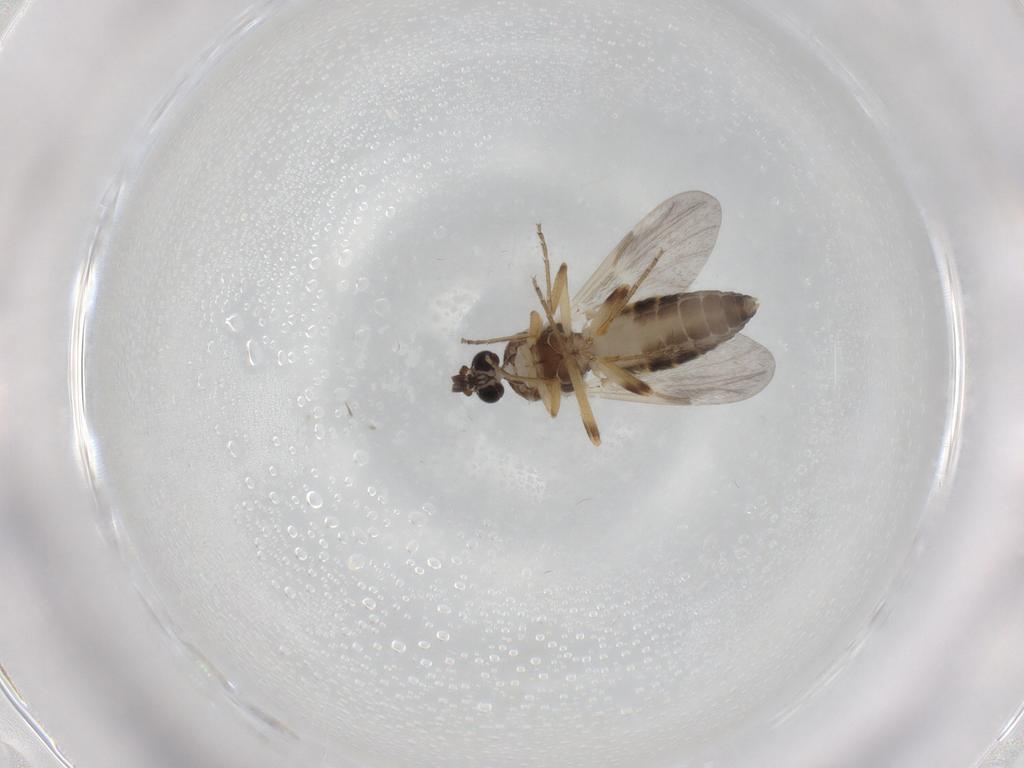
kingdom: Animalia
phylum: Arthropoda
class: Insecta
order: Diptera
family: Ceratopogonidae
